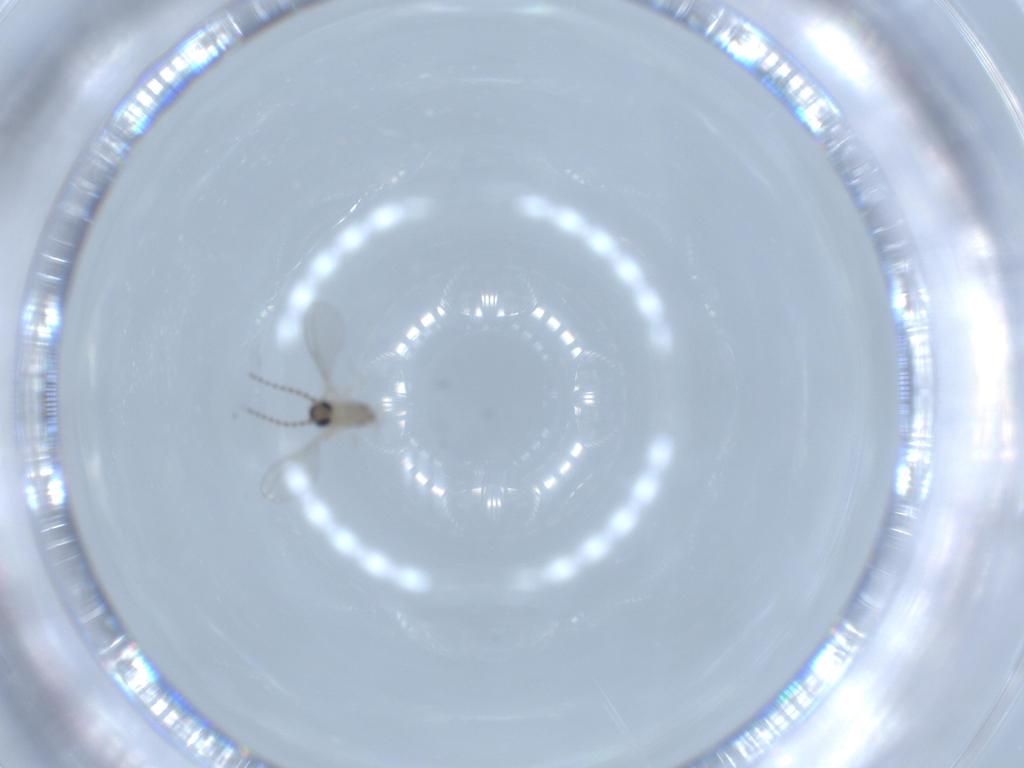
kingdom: Animalia
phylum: Arthropoda
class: Insecta
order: Diptera
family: Cecidomyiidae
